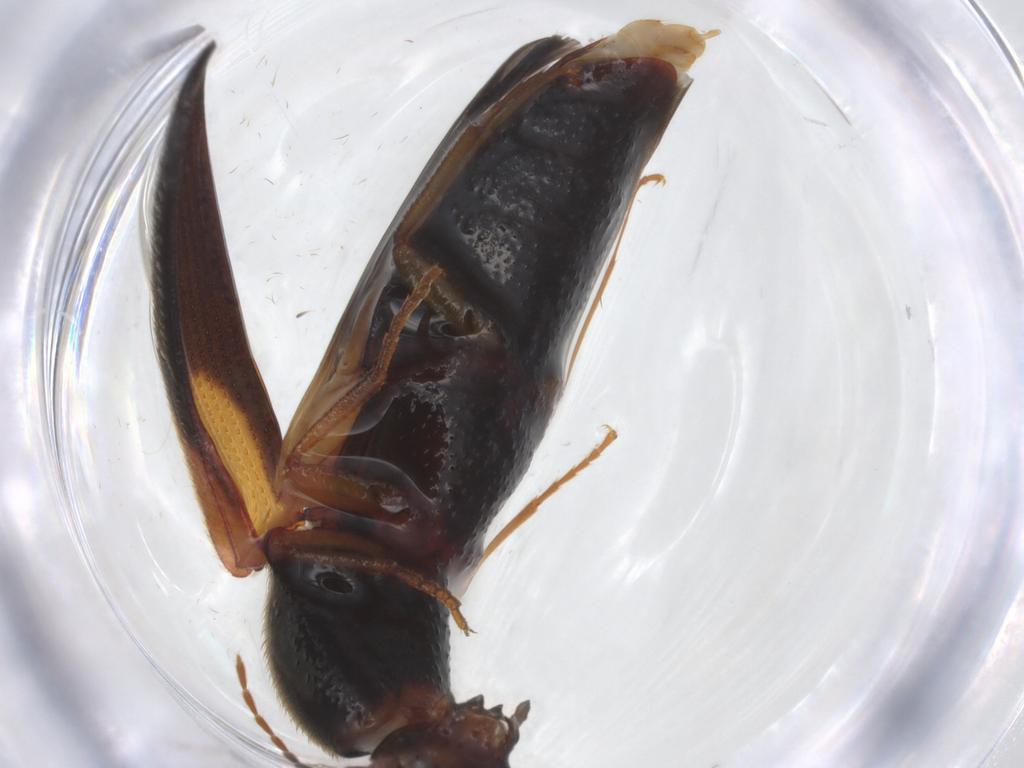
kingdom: Animalia
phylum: Arthropoda
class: Insecta
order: Coleoptera
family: Elateridae
